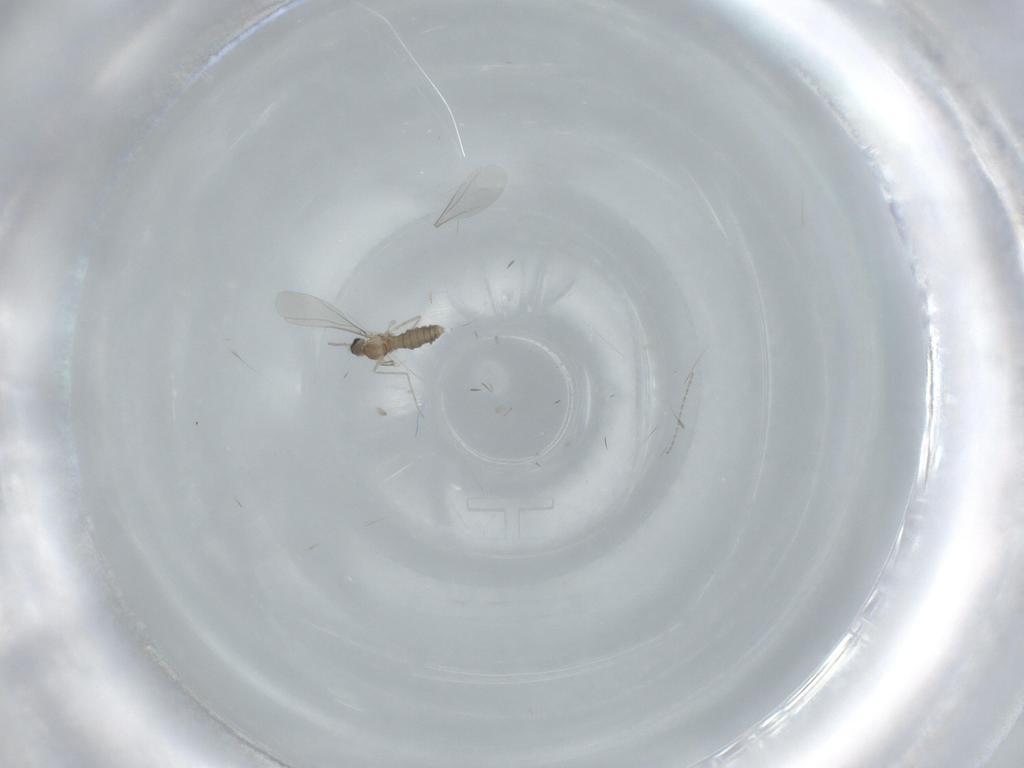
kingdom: Animalia
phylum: Arthropoda
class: Insecta
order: Diptera
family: Cecidomyiidae
